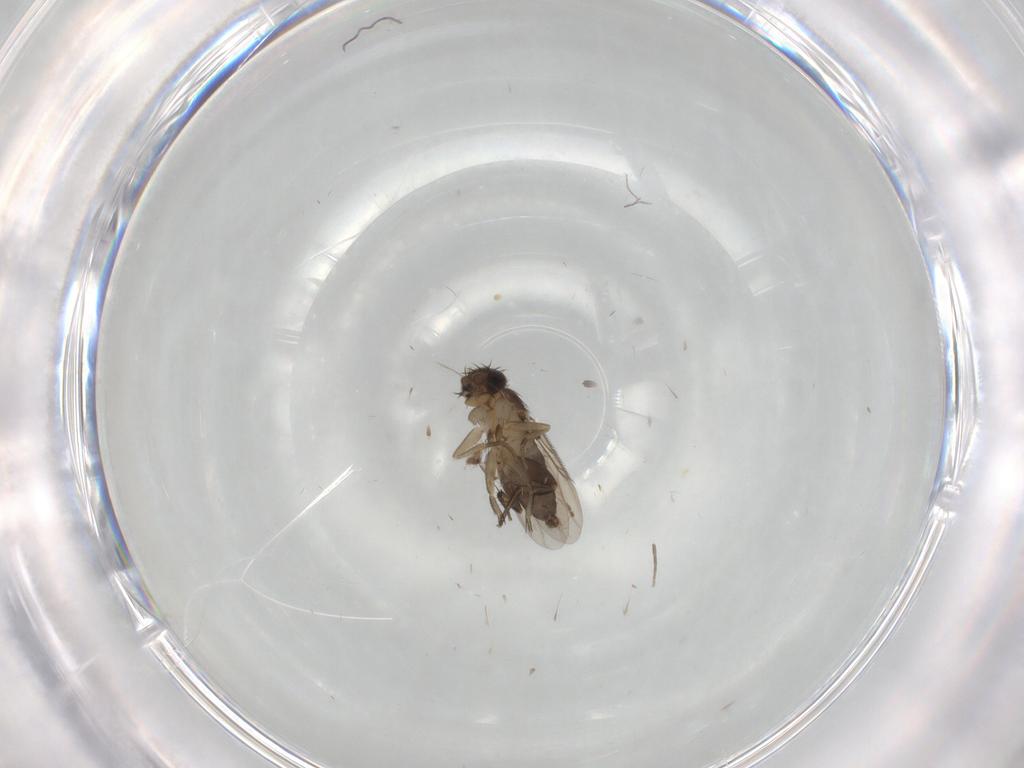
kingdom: Animalia
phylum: Arthropoda
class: Insecta
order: Diptera
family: Phoridae
